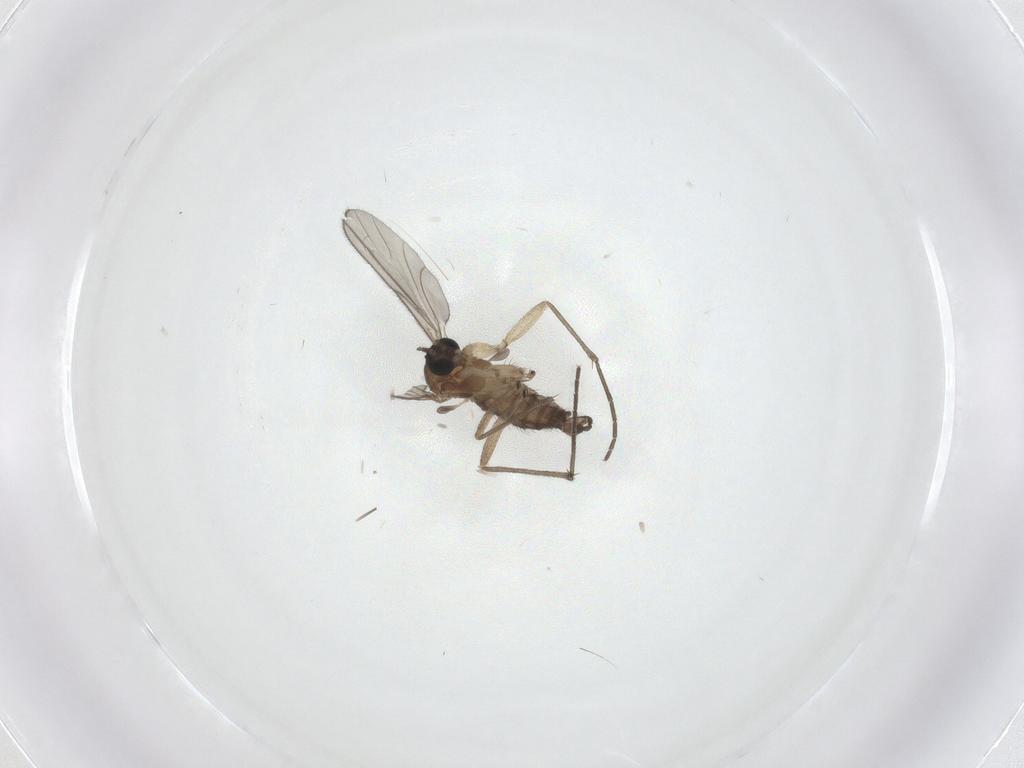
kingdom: Animalia
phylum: Arthropoda
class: Insecta
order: Diptera
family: Sciaridae
